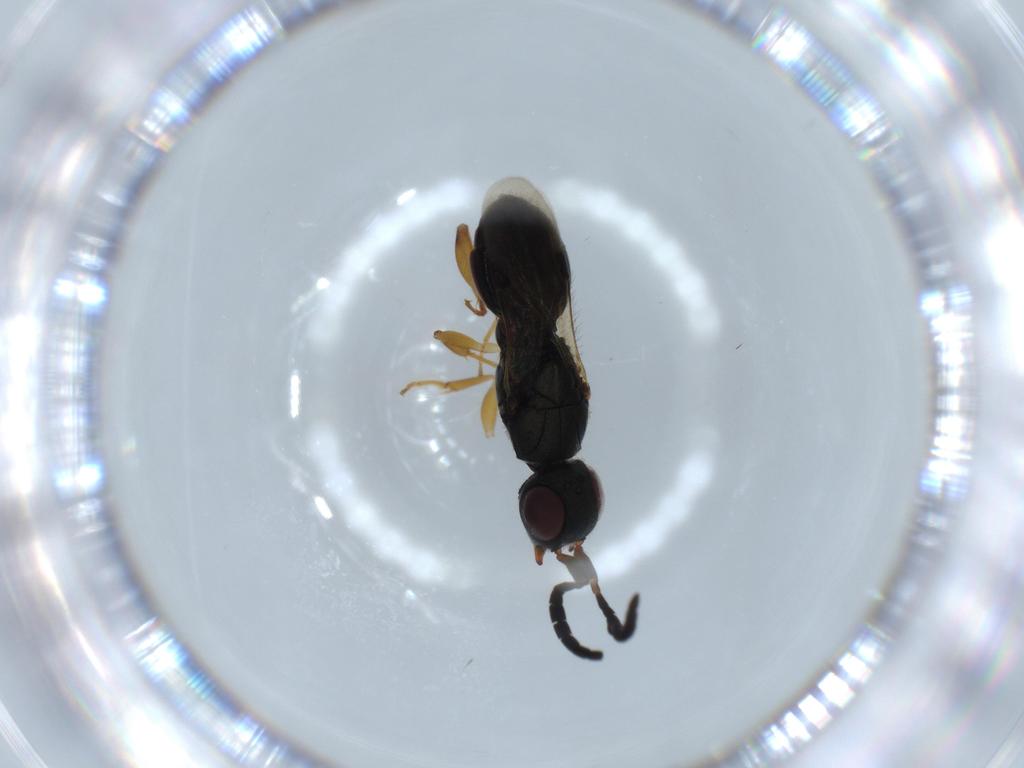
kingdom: Animalia
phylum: Arthropoda
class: Insecta
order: Hymenoptera
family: Megaspilidae
